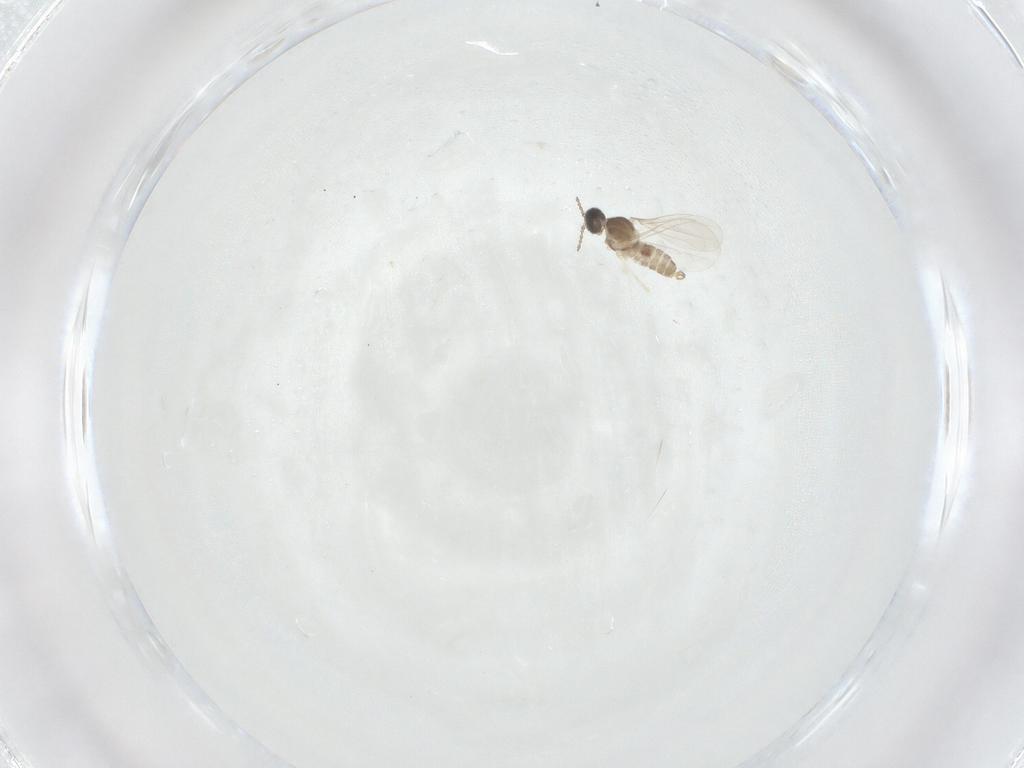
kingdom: Animalia
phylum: Arthropoda
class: Insecta
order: Diptera
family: Cecidomyiidae
